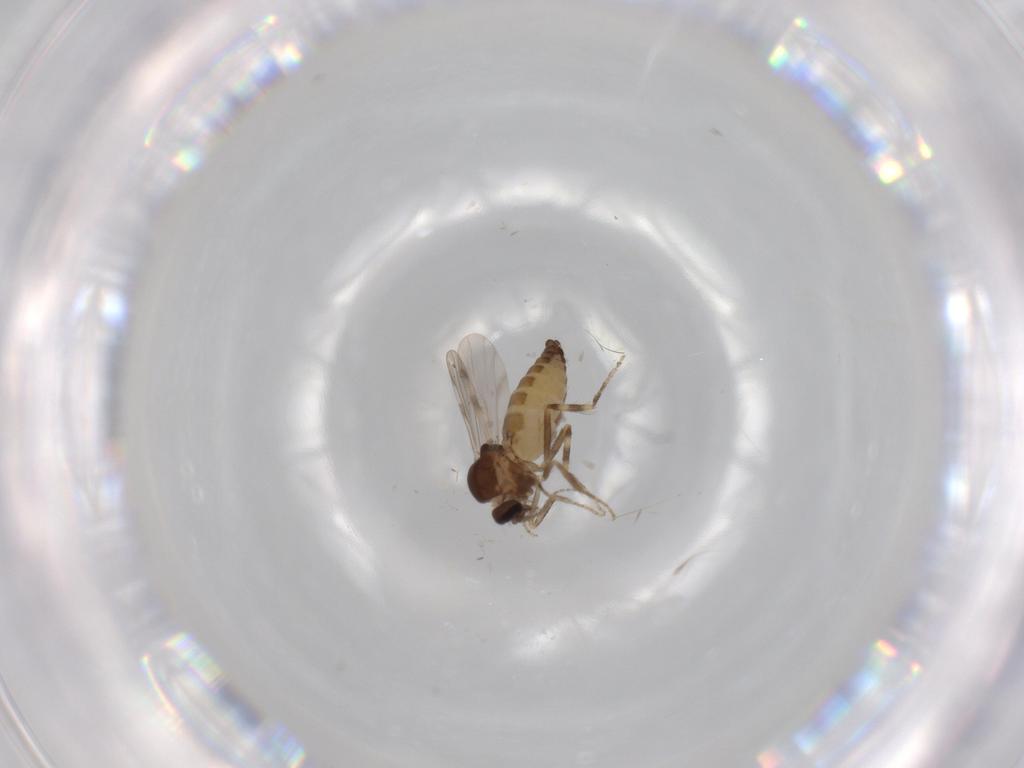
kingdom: Animalia
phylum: Arthropoda
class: Insecta
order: Diptera
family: Ceratopogonidae
